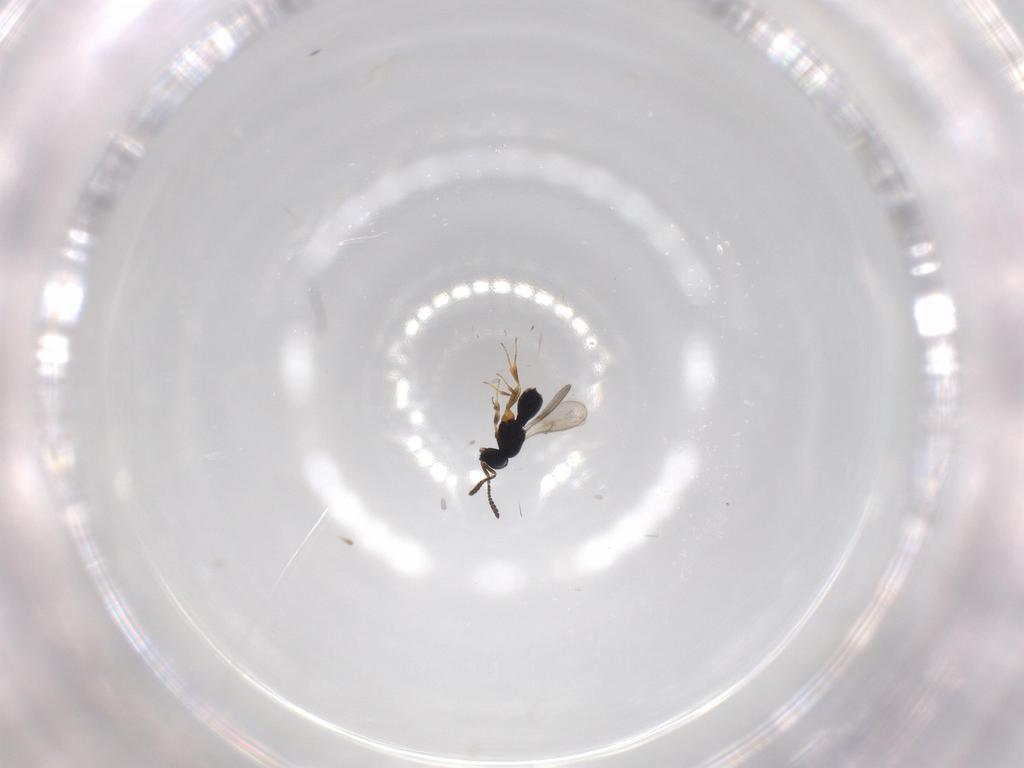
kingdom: Animalia
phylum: Arthropoda
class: Insecta
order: Hymenoptera
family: Scelionidae
